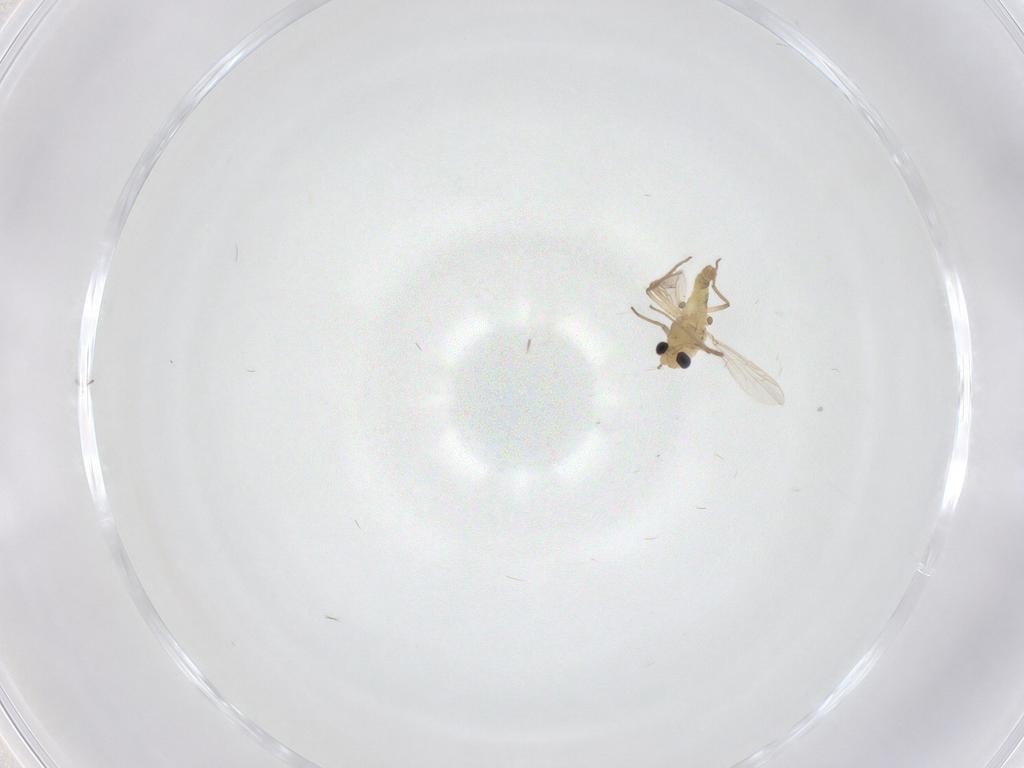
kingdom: Animalia
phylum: Arthropoda
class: Insecta
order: Diptera
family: Chironomidae
